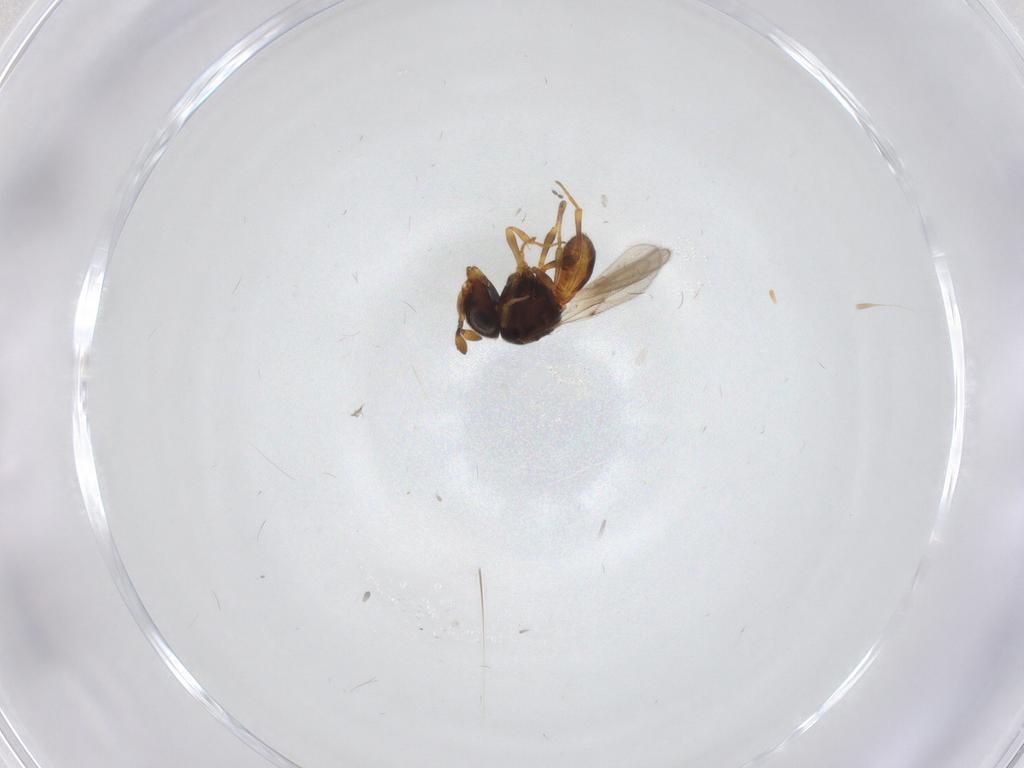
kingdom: Animalia
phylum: Arthropoda
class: Insecta
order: Hymenoptera
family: Scelionidae
